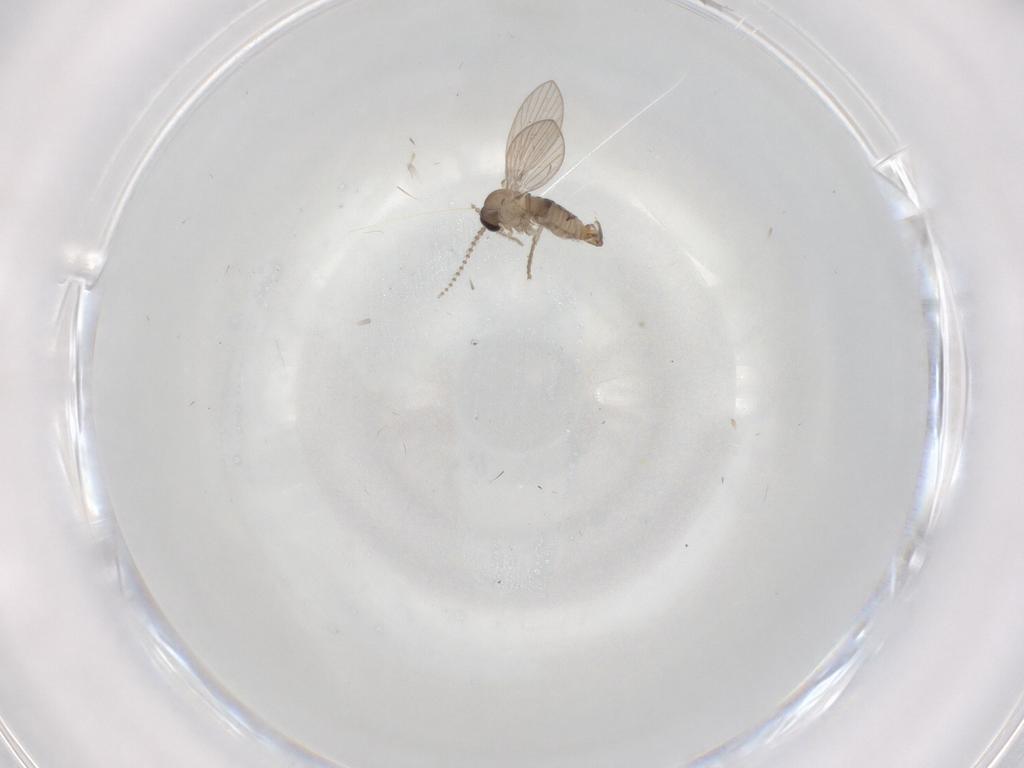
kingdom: Animalia
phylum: Arthropoda
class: Insecta
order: Diptera
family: Psychodidae
